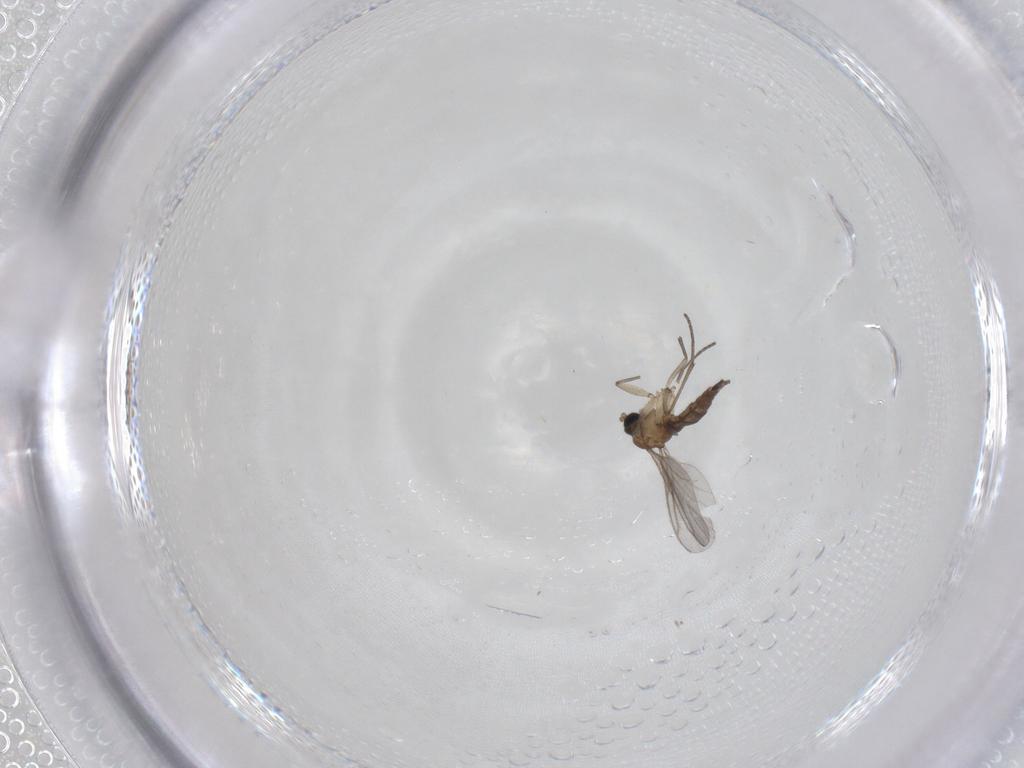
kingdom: Animalia
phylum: Arthropoda
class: Insecta
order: Diptera
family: Sciaridae
